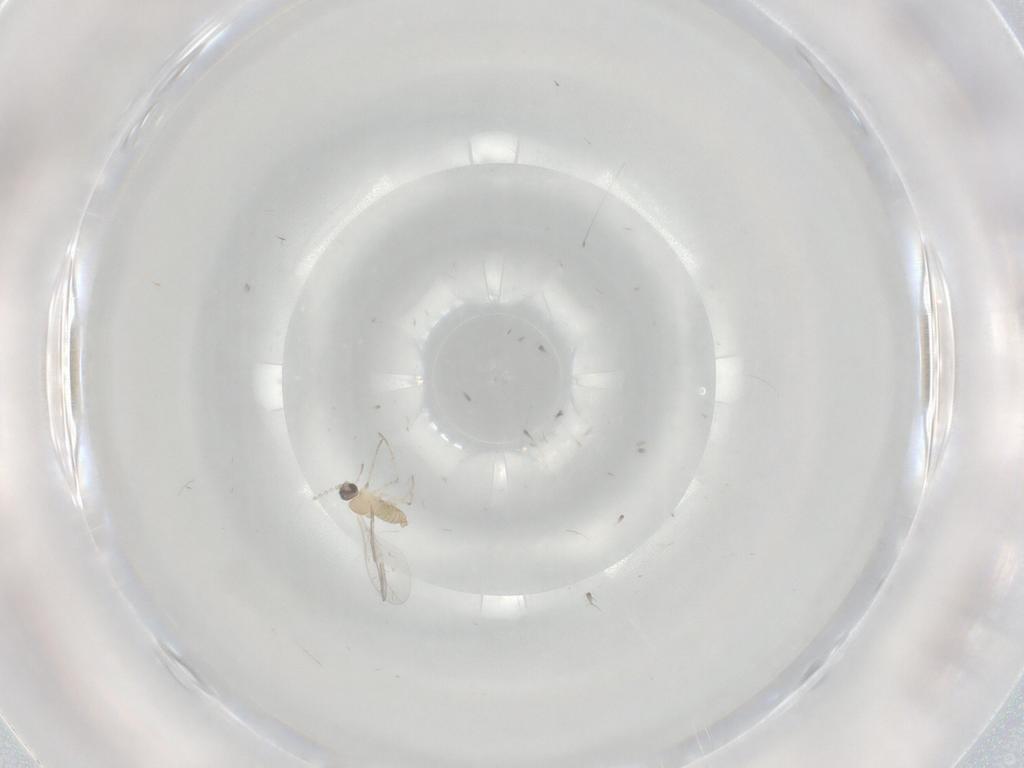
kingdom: Animalia
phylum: Arthropoda
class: Insecta
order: Diptera
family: Cecidomyiidae
